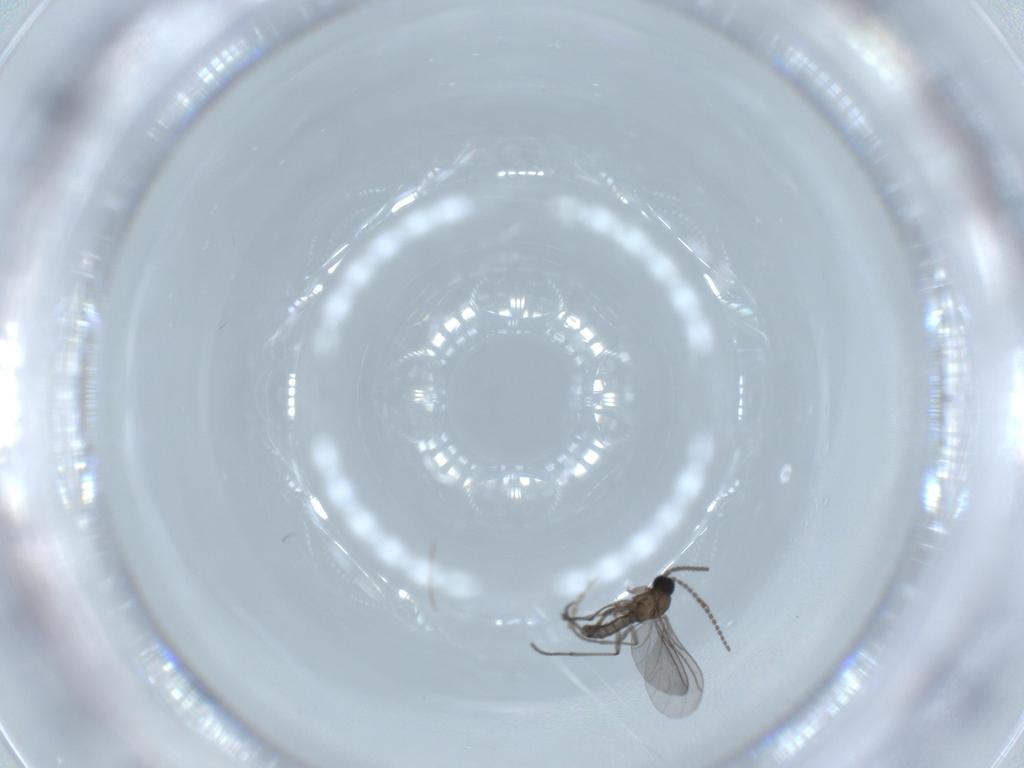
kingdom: Animalia
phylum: Arthropoda
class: Insecta
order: Diptera
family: Cecidomyiidae
